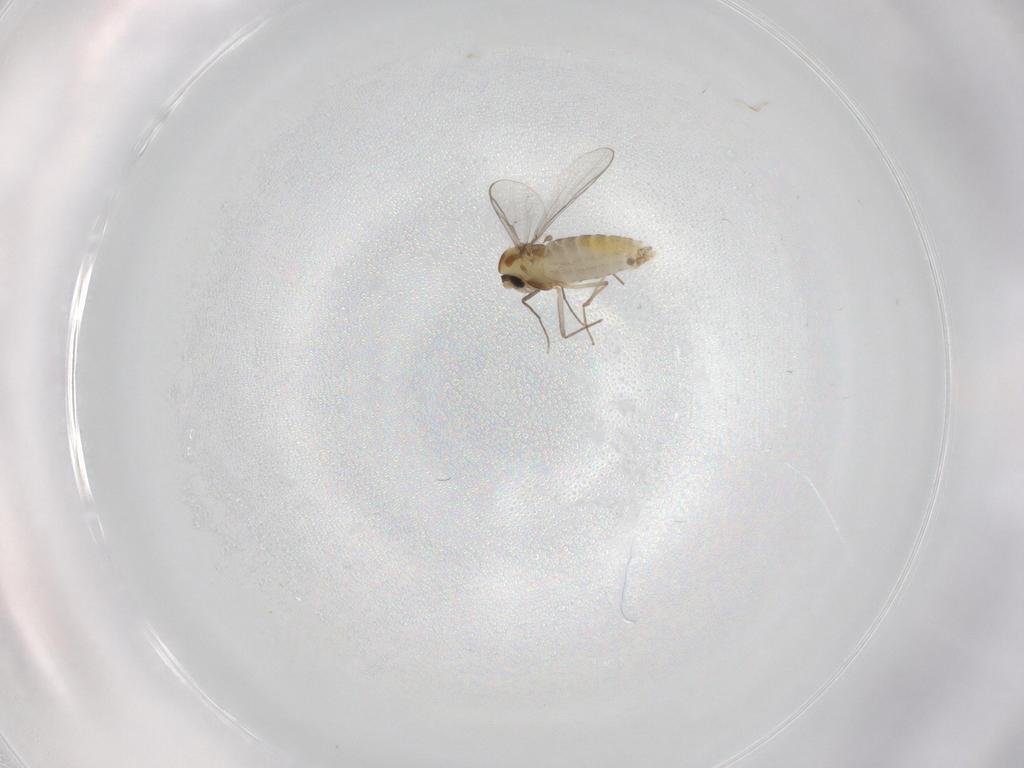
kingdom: Animalia
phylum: Arthropoda
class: Insecta
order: Diptera
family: Chironomidae
